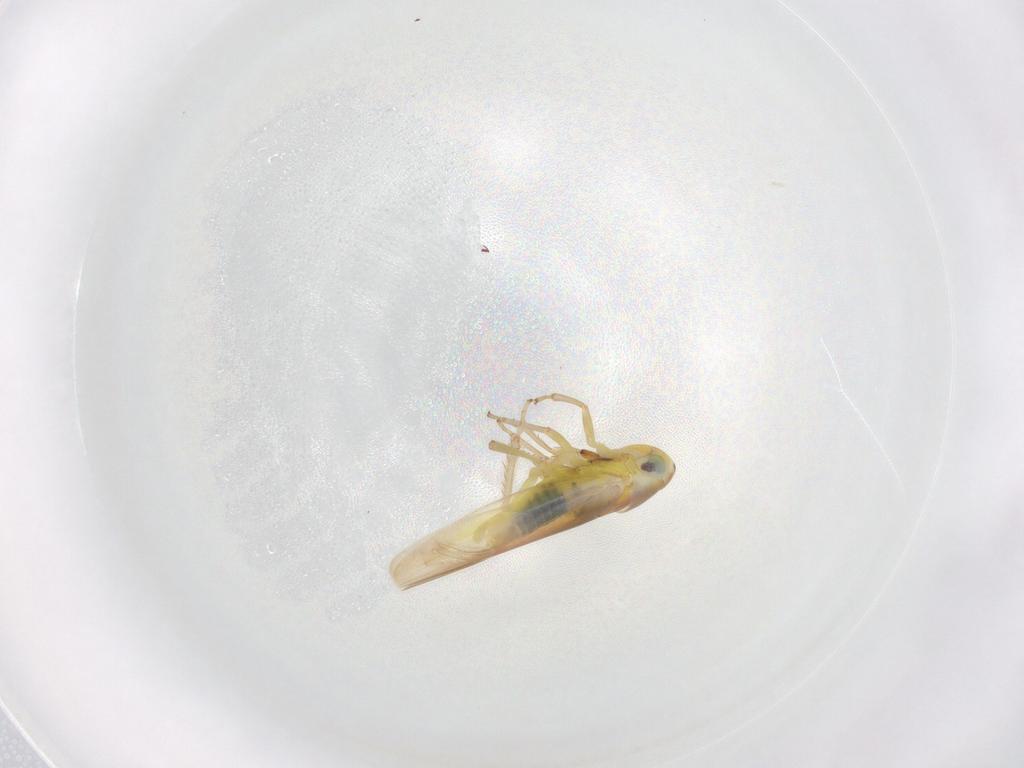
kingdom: Animalia
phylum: Arthropoda
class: Insecta
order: Hemiptera
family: Cicadellidae
